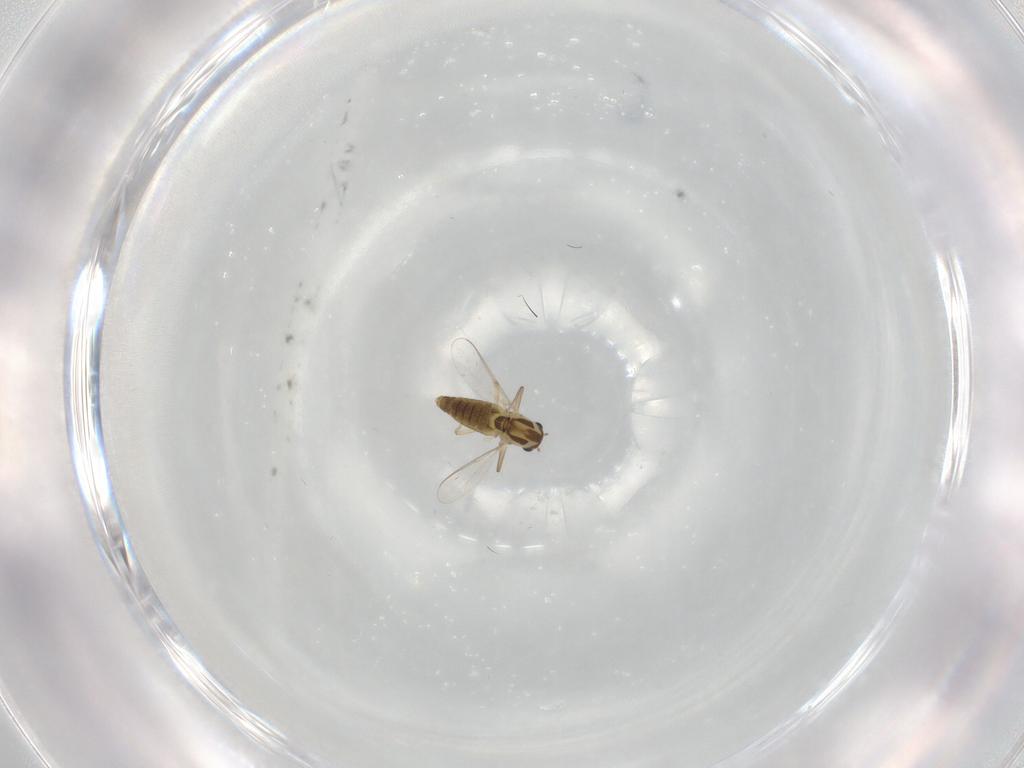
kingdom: Animalia
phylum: Arthropoda
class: Insecta
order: Diptera
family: Chironomidae
